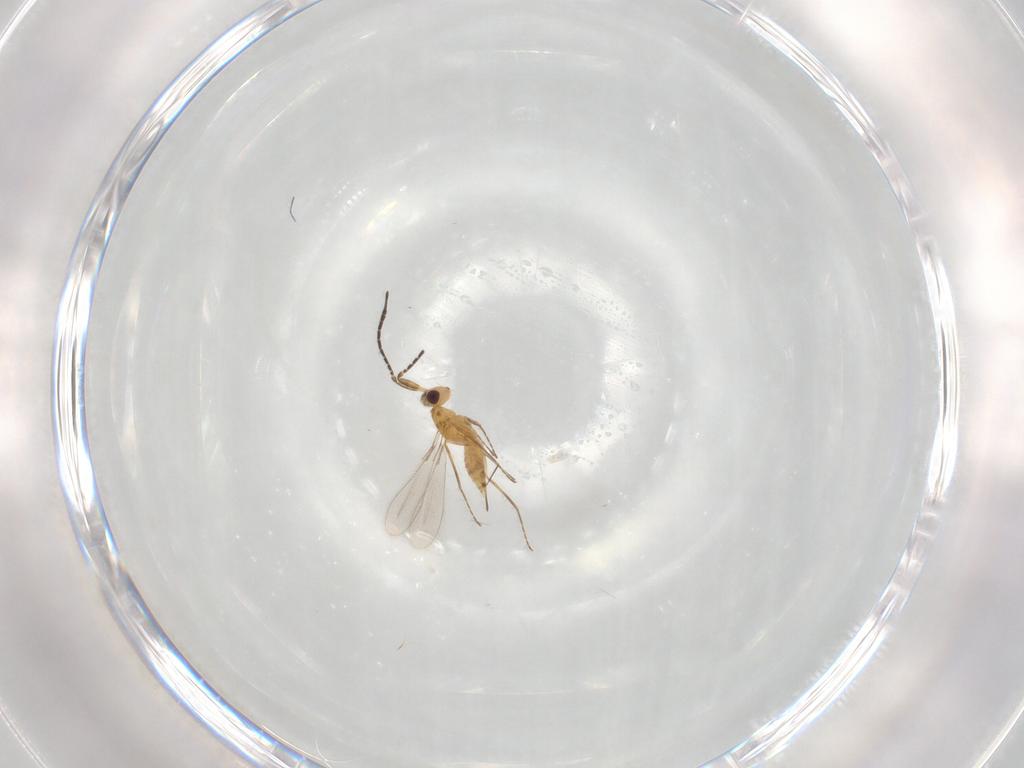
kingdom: Animalia
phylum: Arthropoda
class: Insecta
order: Hymenoptera
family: Mymaridae
